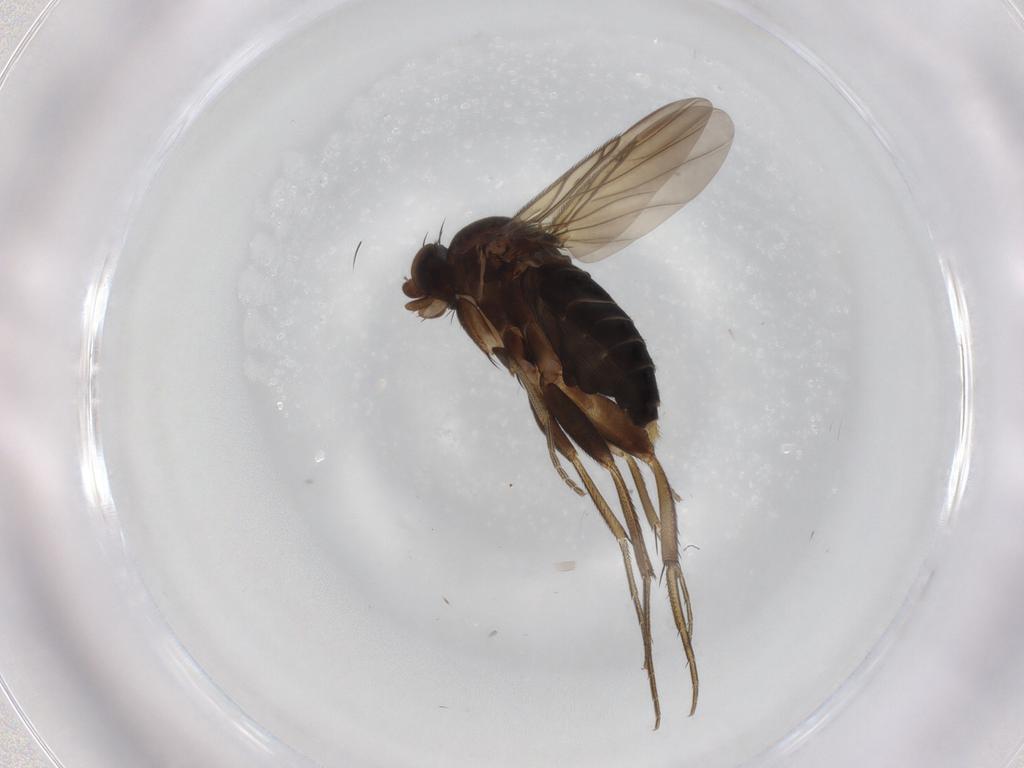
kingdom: Animalia
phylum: Arthropoda
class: Insecta
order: Diptera
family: Phoridae
